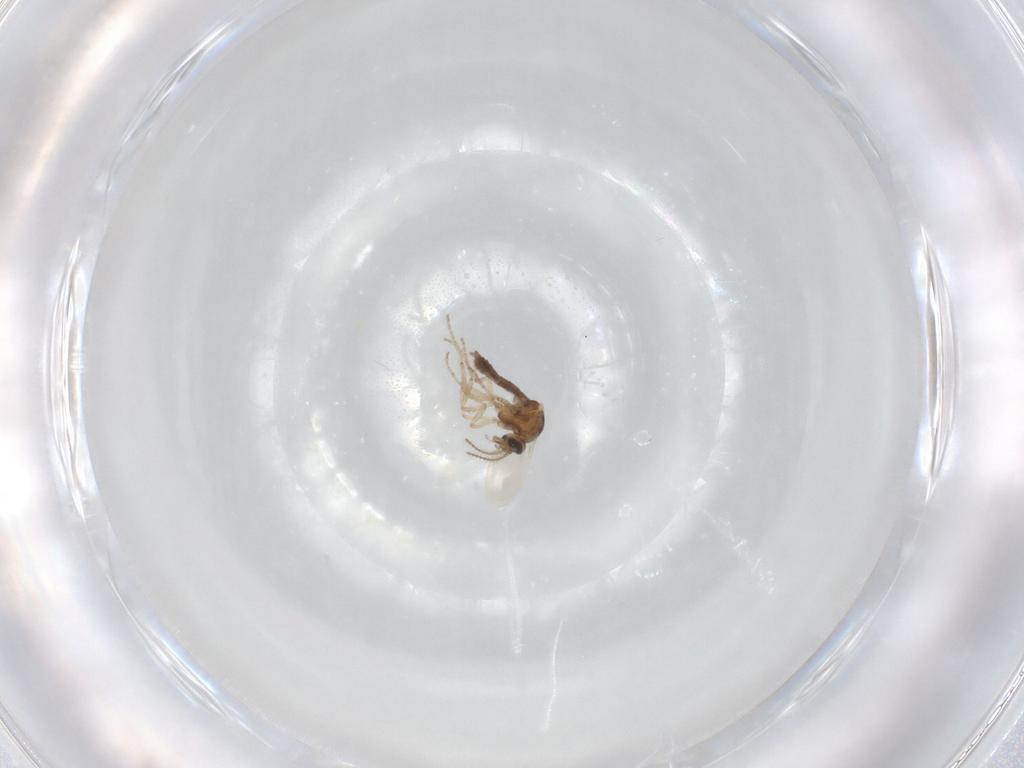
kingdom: Animalia
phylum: Arthropoda
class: Insecta
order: Diptera
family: Ceratopogonidae
